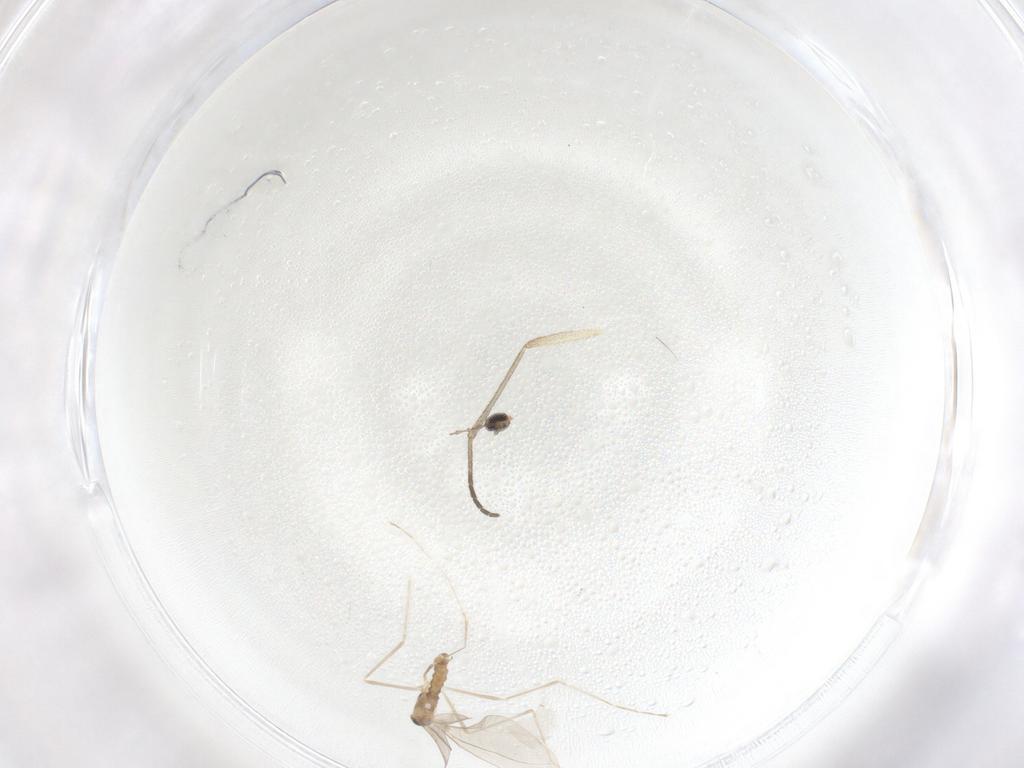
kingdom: Animalia
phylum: Arthropoda
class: Insecta
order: Diptera
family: Cecidomyiidae
